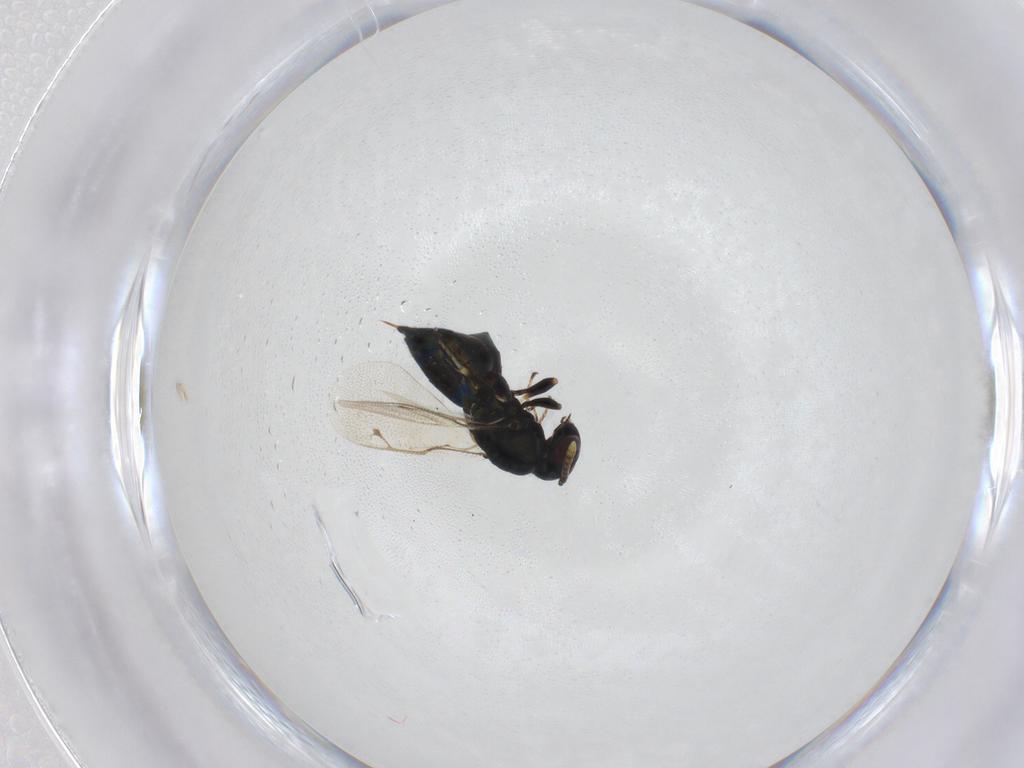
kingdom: Animalia
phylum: Arthropoda
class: Insecta
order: Hymenoptera
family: Pteromalidae
